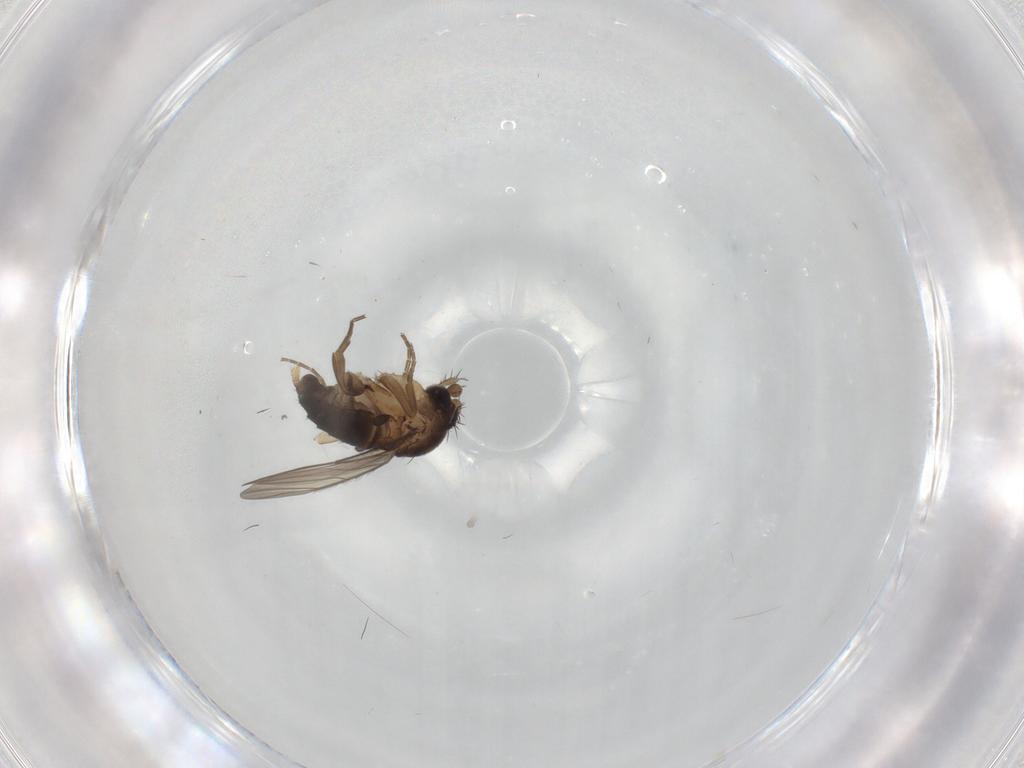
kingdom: Animalia
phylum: Arthropoda
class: Insecta
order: Diptera
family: Phoridae
